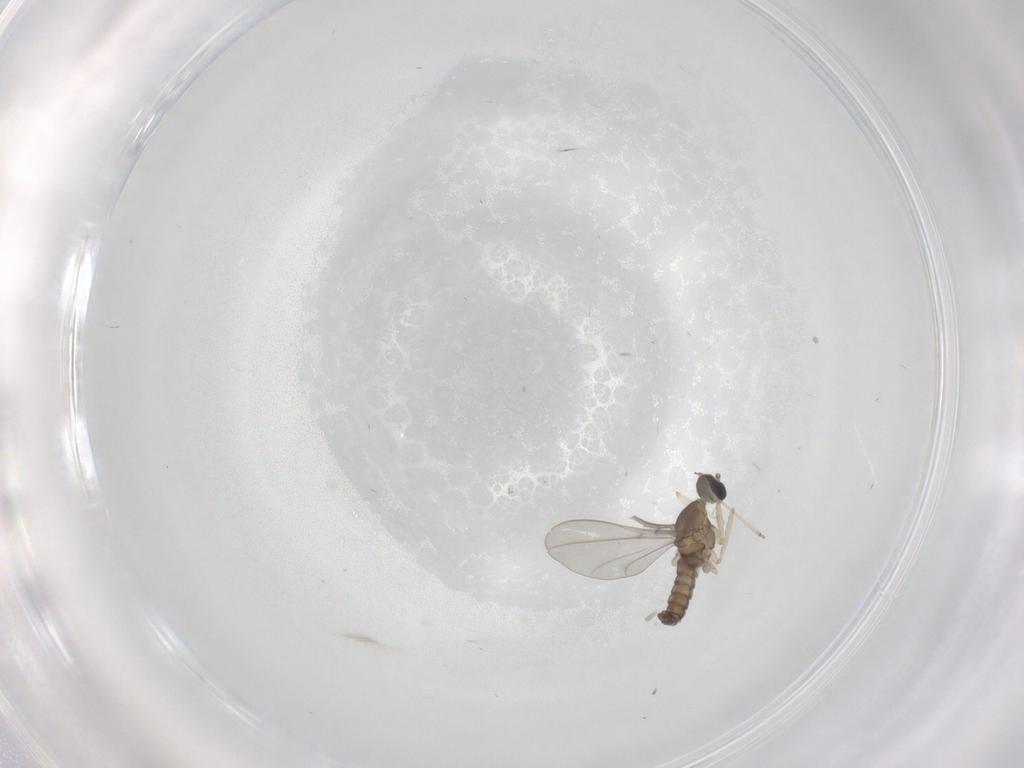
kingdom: Animalia
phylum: Arthropoda
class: Insecta
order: Diptera
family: Cecidomyiidae
